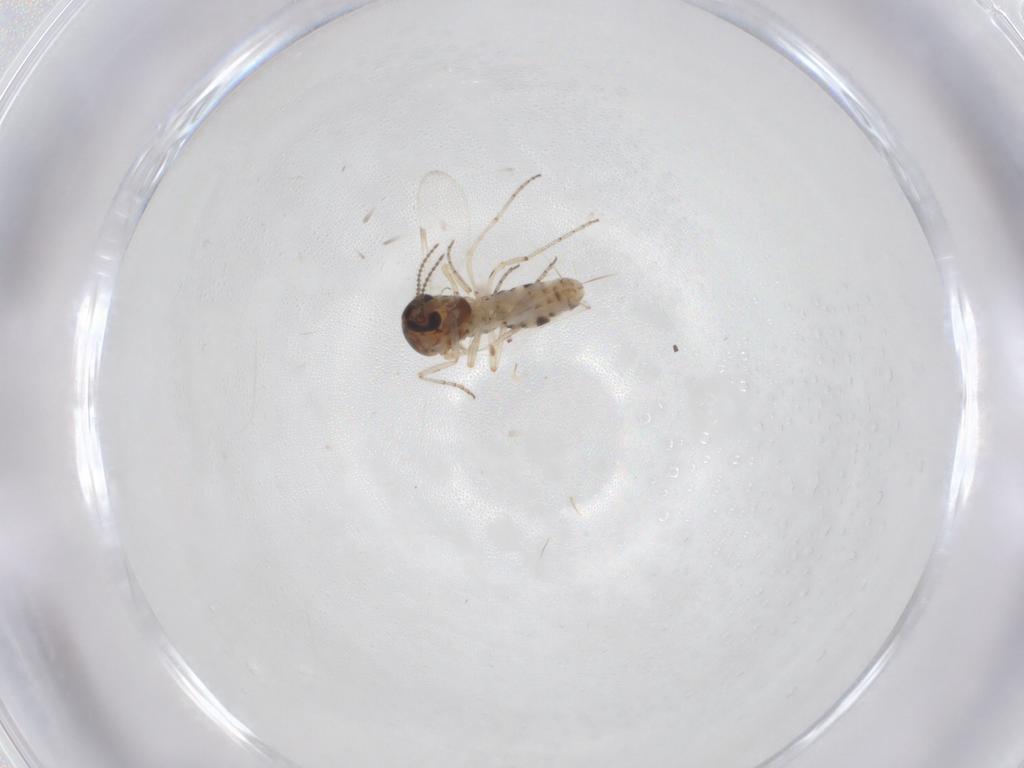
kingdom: Animalia
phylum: Arthropoda
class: Insecta
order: Diptera
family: Ceratopogonidae
